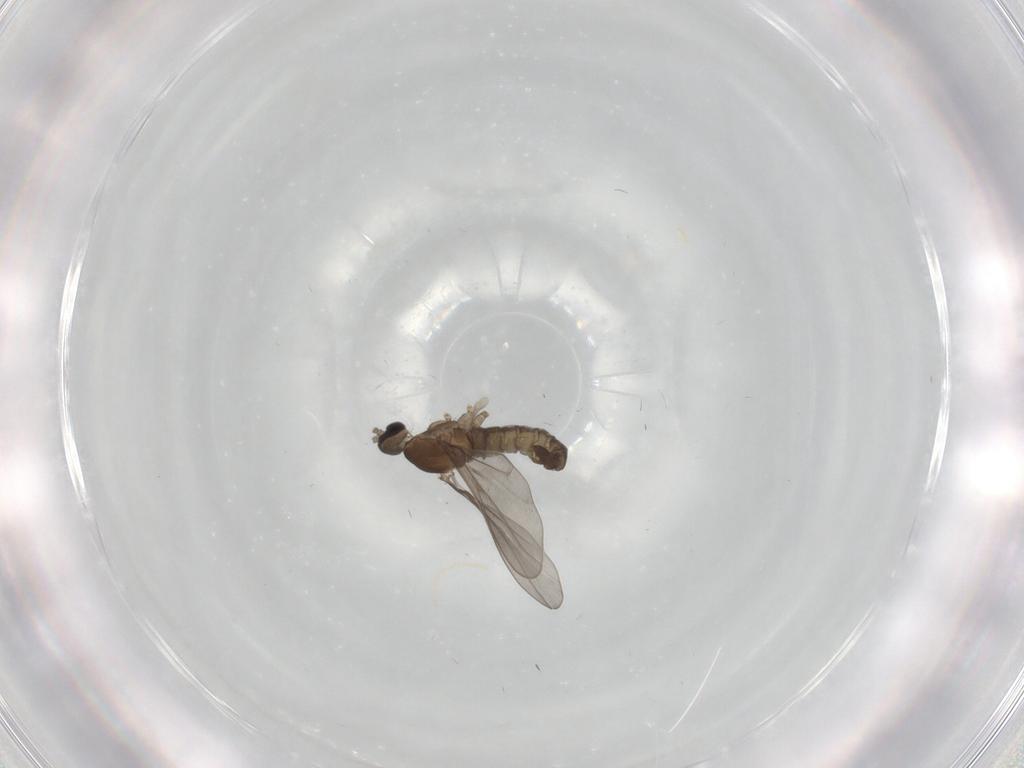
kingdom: Animalia
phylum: Arthropoda
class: Insecta
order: Diptera
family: Cecidomyiidae
